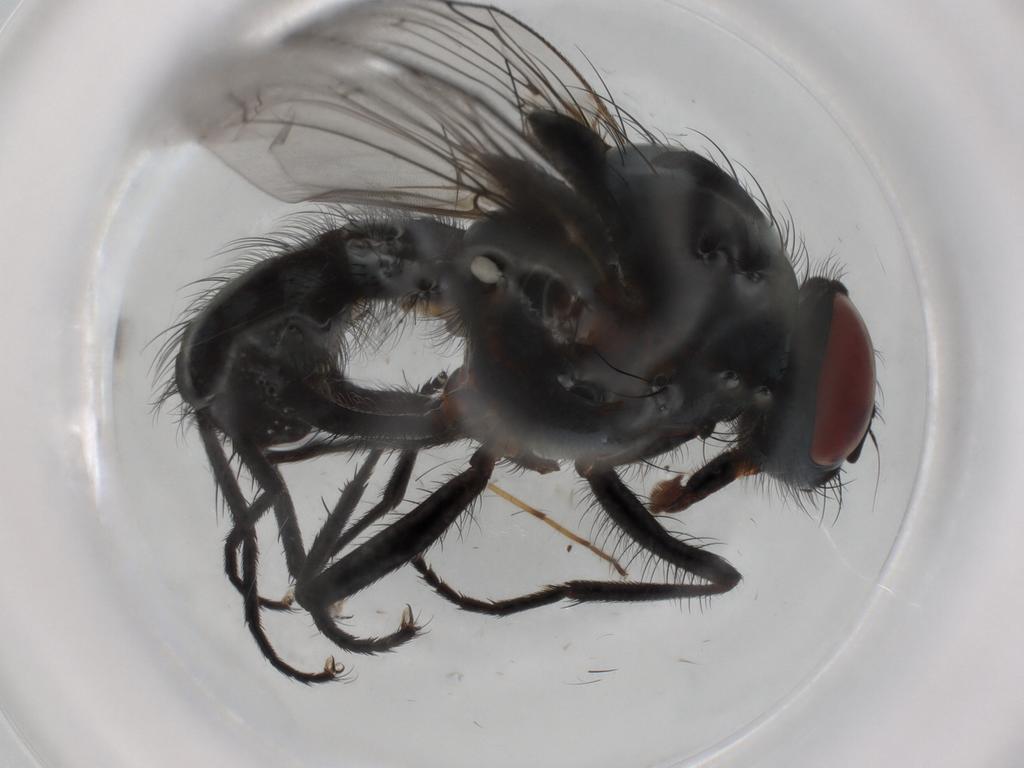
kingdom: Animalia
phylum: Arthropoda
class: Insecta
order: Diptera
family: Anthomyiidae
